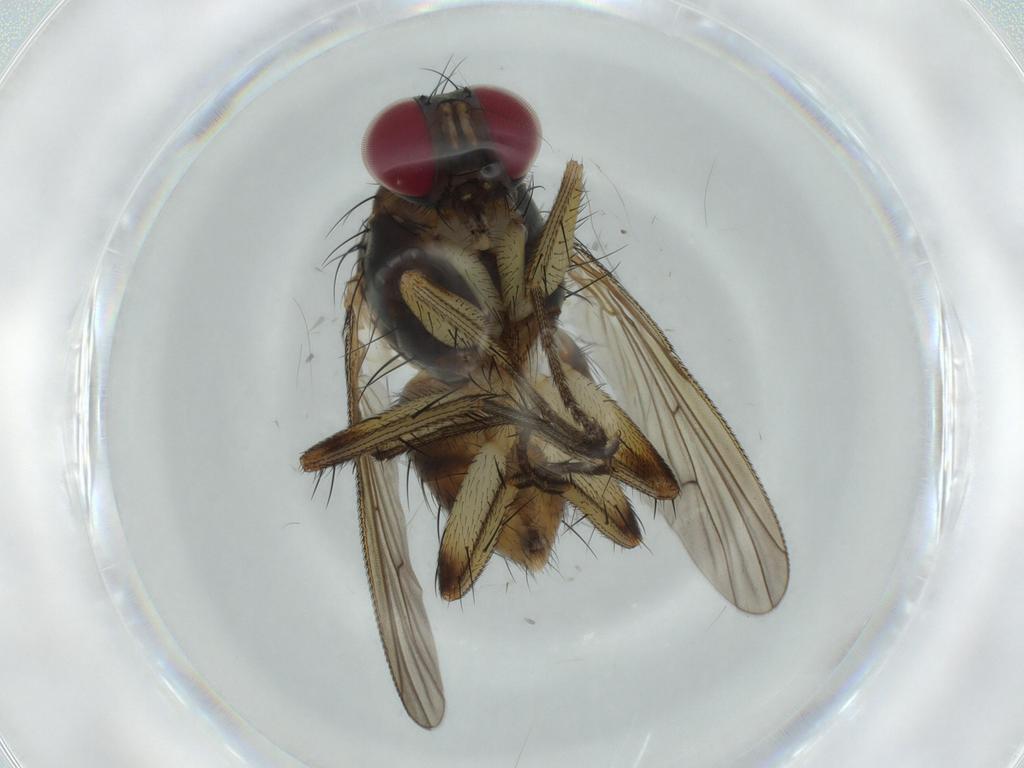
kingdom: Animalia
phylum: Arthropoda
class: Insecta
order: Diptera
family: Muscidae
